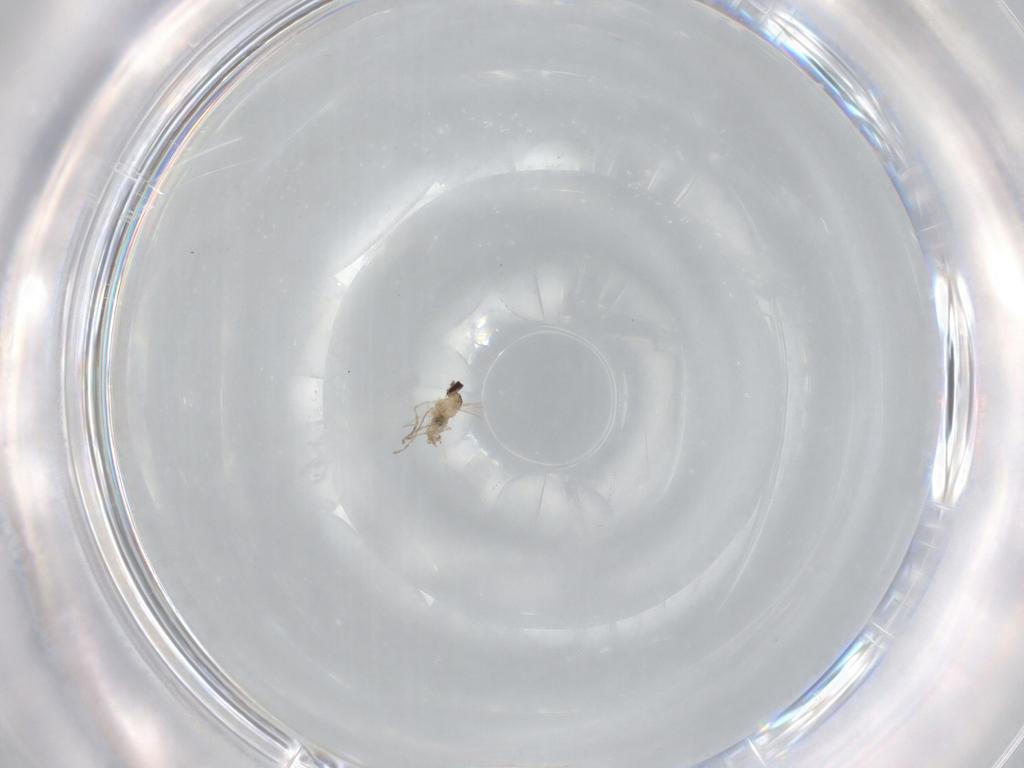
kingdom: Animalia
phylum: Arthropoda
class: Insecta
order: Diptera
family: Cecidomyiidae
